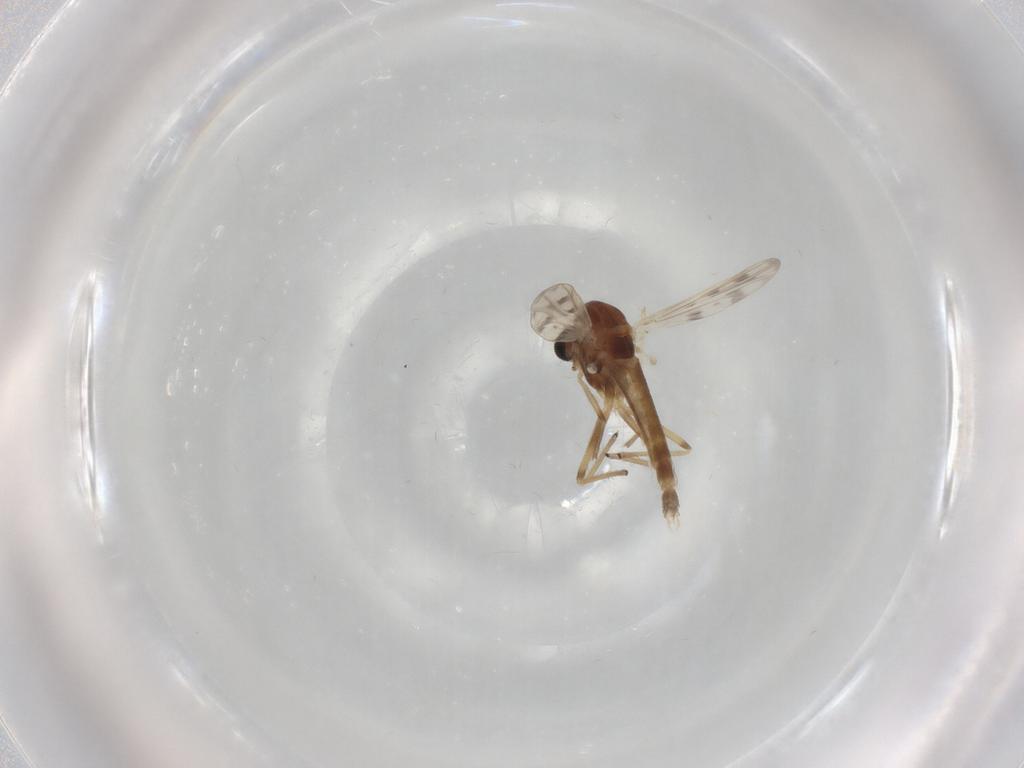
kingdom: Animalia
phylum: Arthropoda
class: Insecta
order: Diptera
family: Chironomidae
